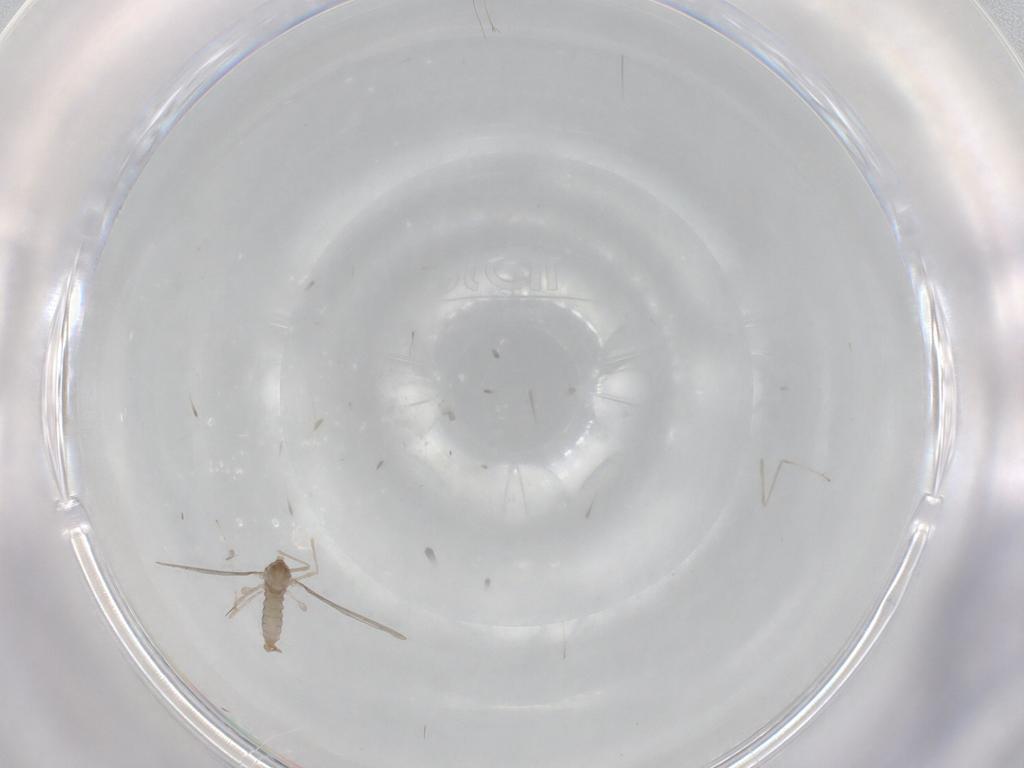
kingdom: Animalia
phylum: Arthropoda
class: Insecta
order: Diptera
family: Cecidomyiidae
